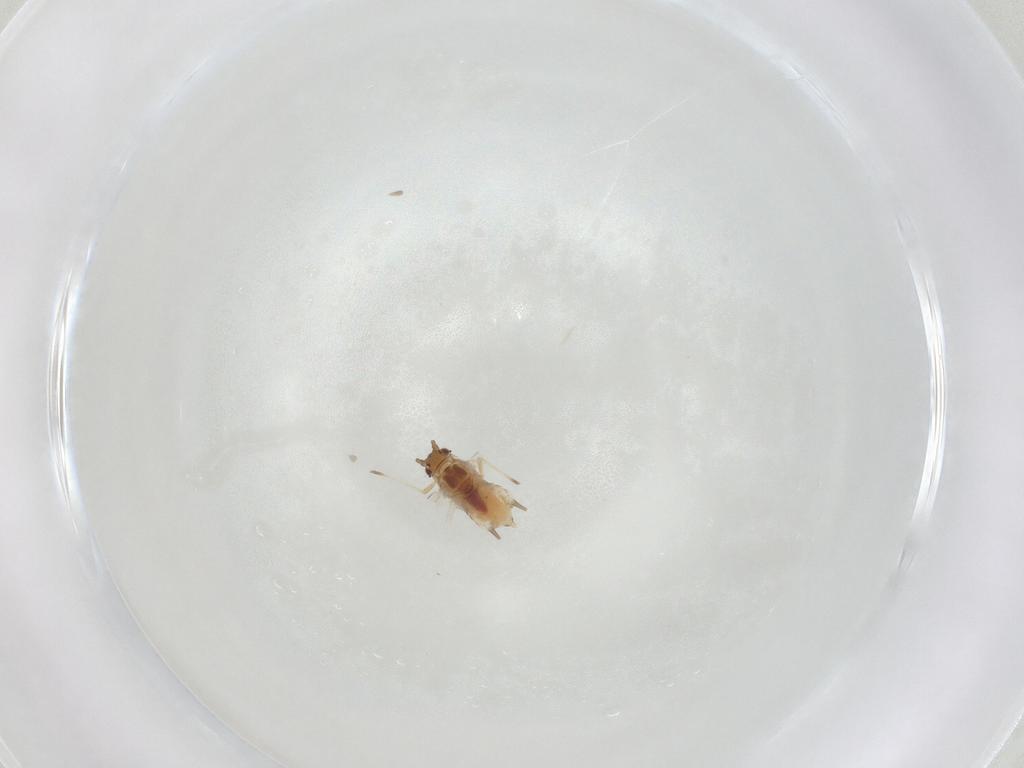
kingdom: Animalia
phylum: Arthropoda
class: Insecta
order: Hemiptera
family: Aphididae
